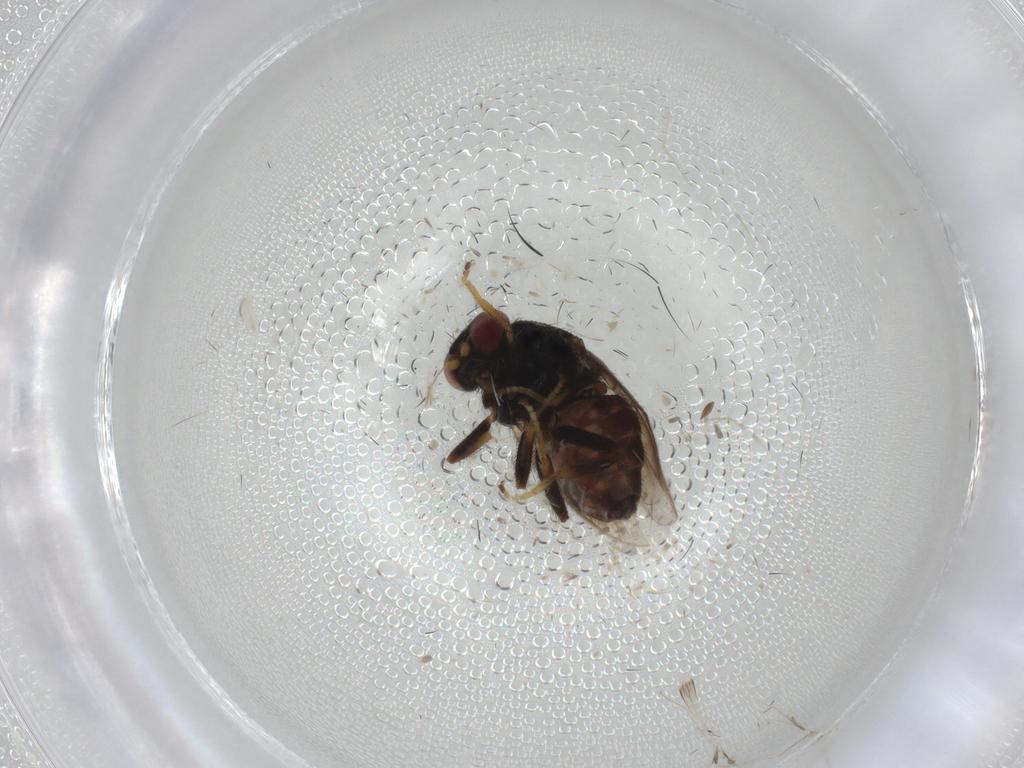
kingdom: Animalia
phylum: Arthropoda
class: Insecta
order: Diptera
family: Chloropidae
